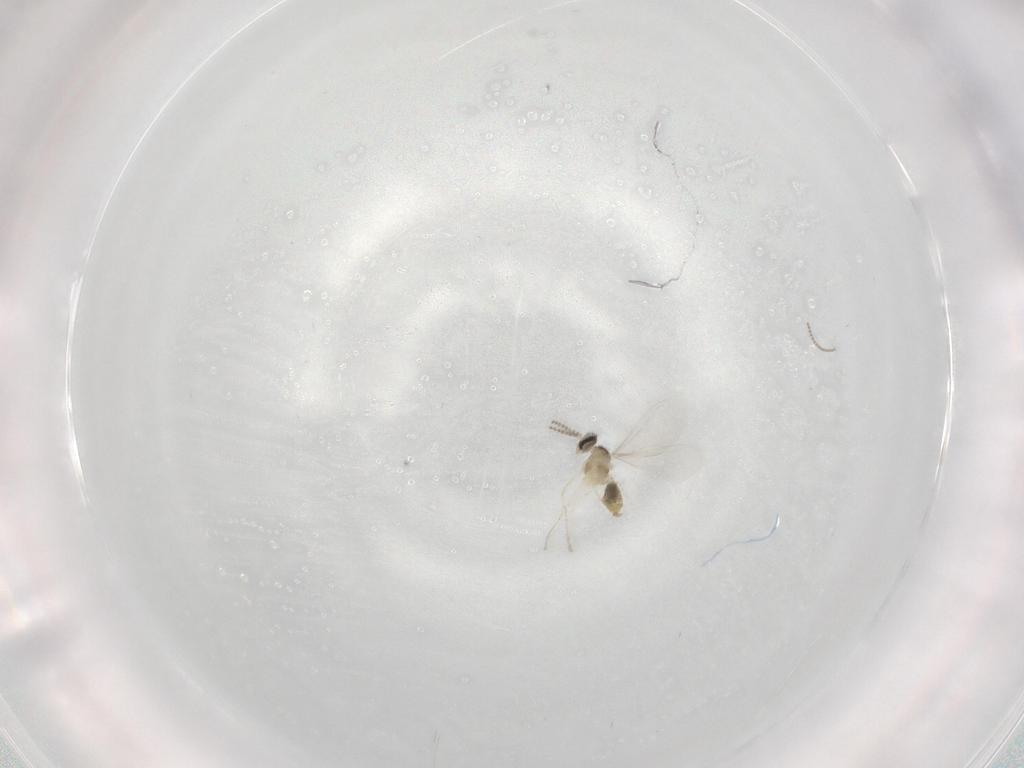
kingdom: Animalia
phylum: Arthropoda
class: Insecta
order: Diptera
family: Cecidomyiidae
